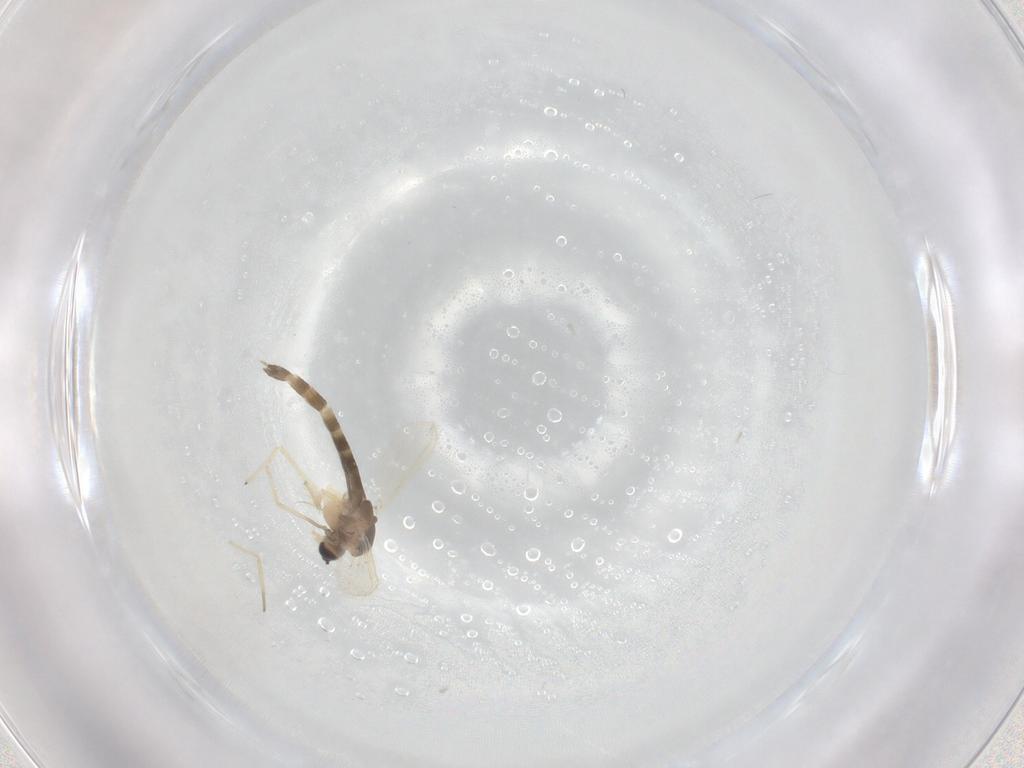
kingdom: Animalia
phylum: Arthropoda
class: Insecta
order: Diptera
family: Chironomidae
